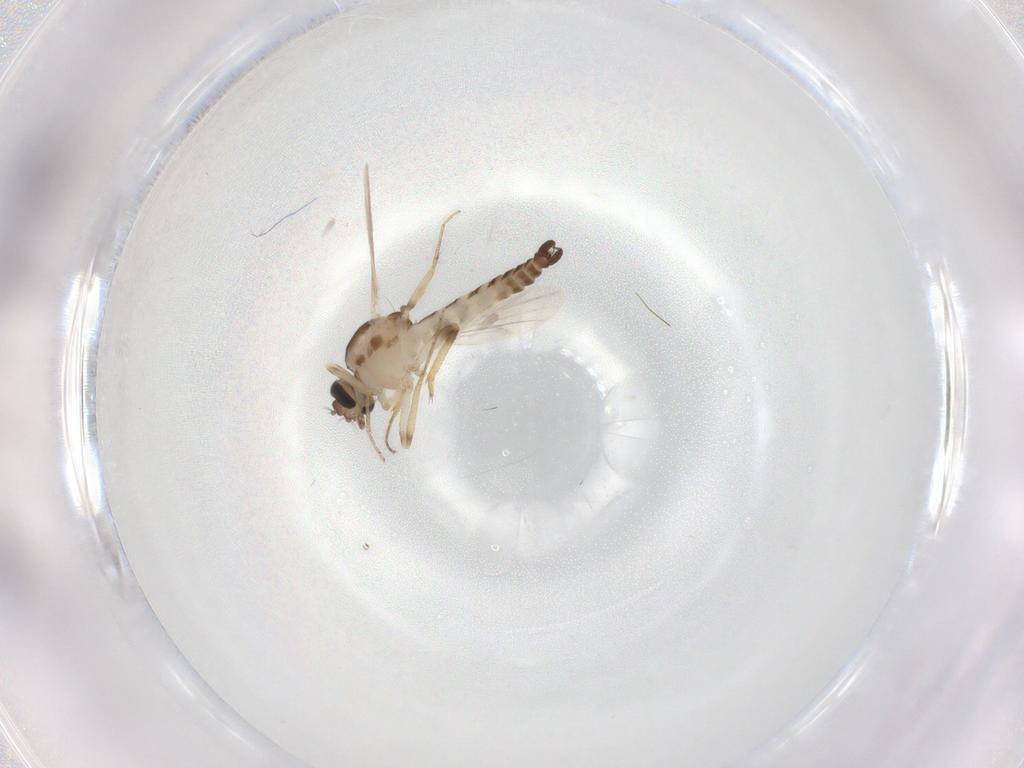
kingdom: Animalia
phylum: Arthropoda
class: Insecta
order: Diptera
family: Ceratopogonidae
